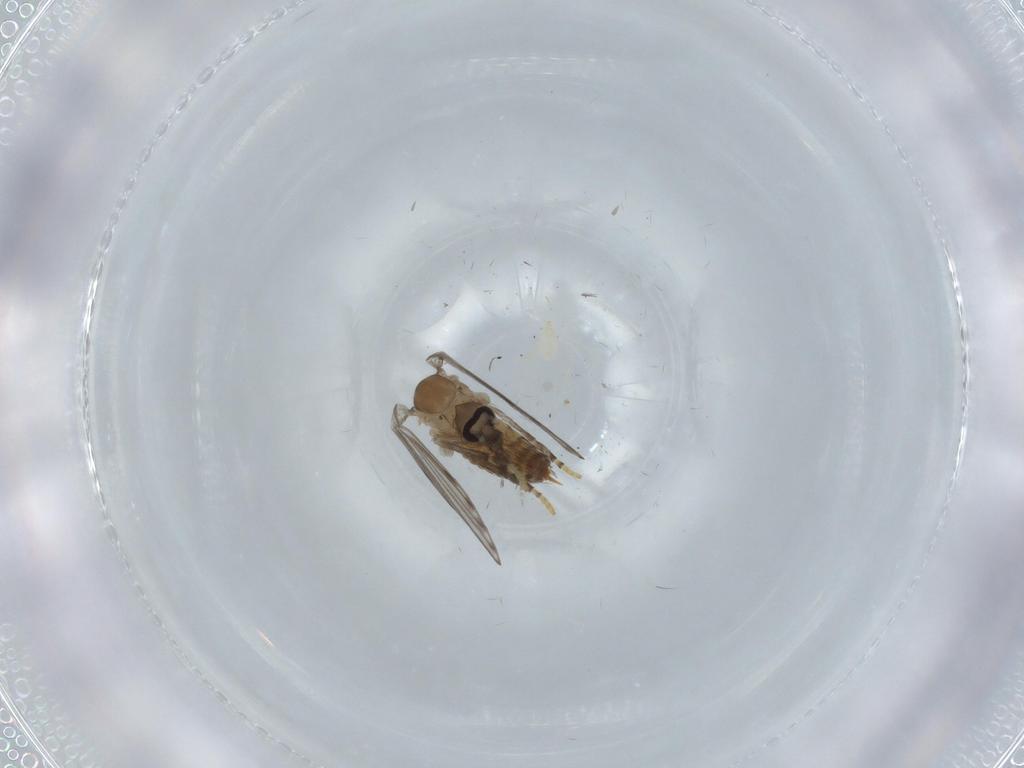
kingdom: Animalia
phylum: Arthropoda
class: Insecta
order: Diptera
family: Psychodidae
